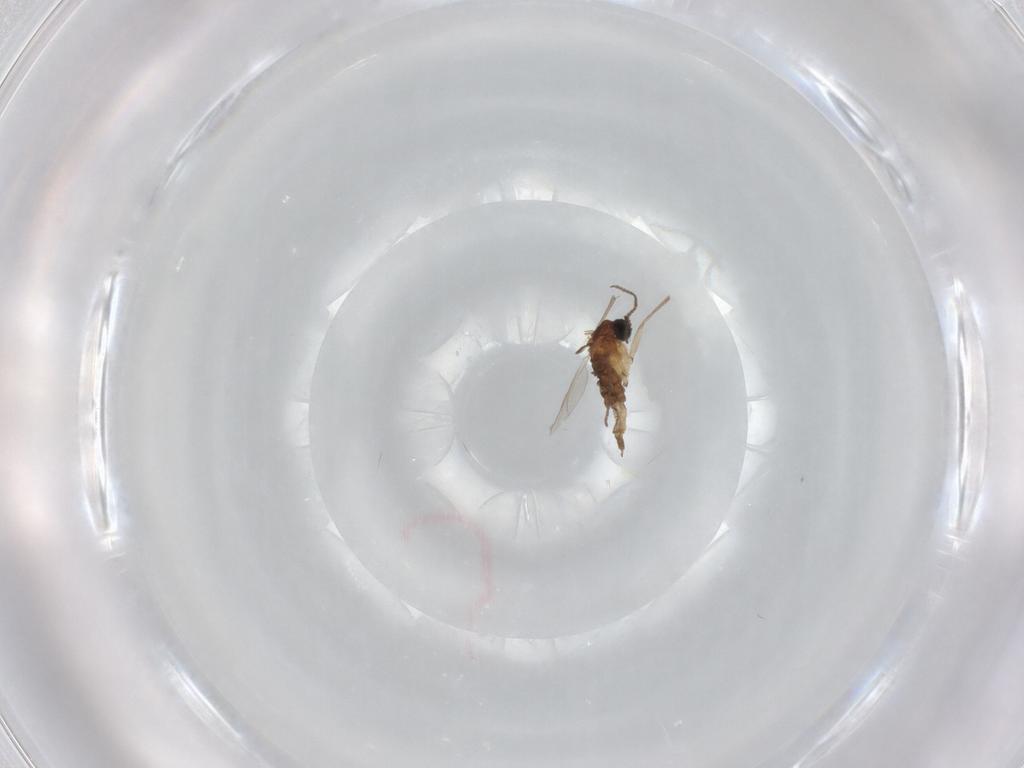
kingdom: Animalia
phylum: Arthropoda
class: Insecta
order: Diptera
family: Sciaridae
